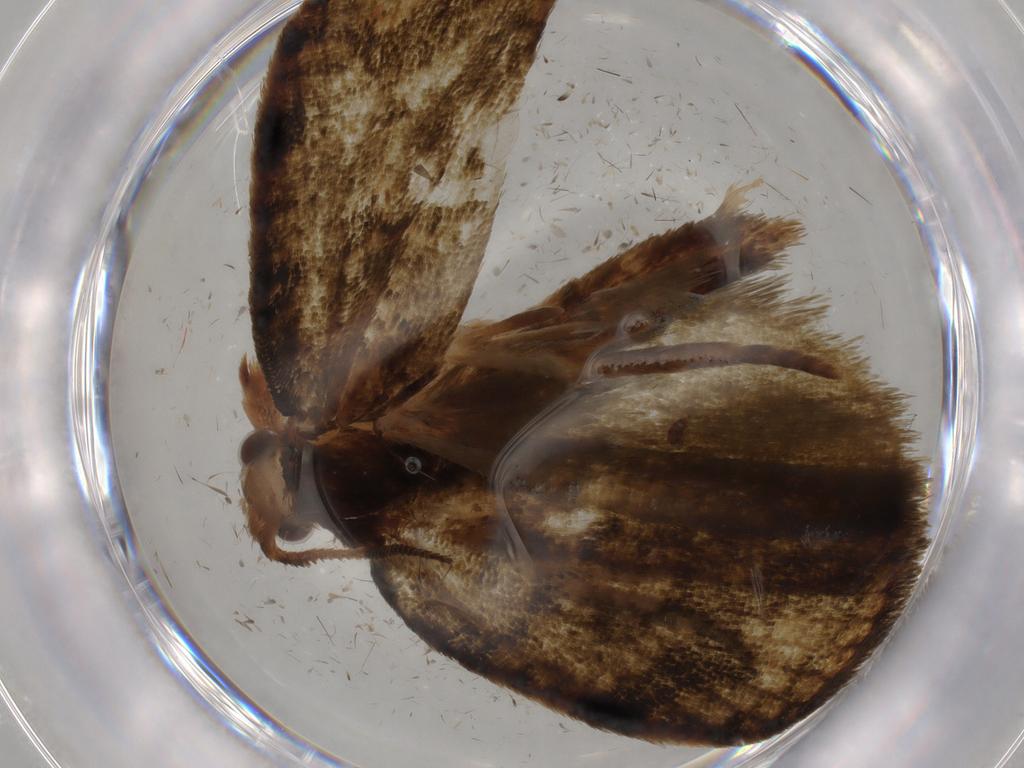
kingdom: Animalia
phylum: Arthropoda
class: Insecta
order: Lepidoptera
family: Geometridae
